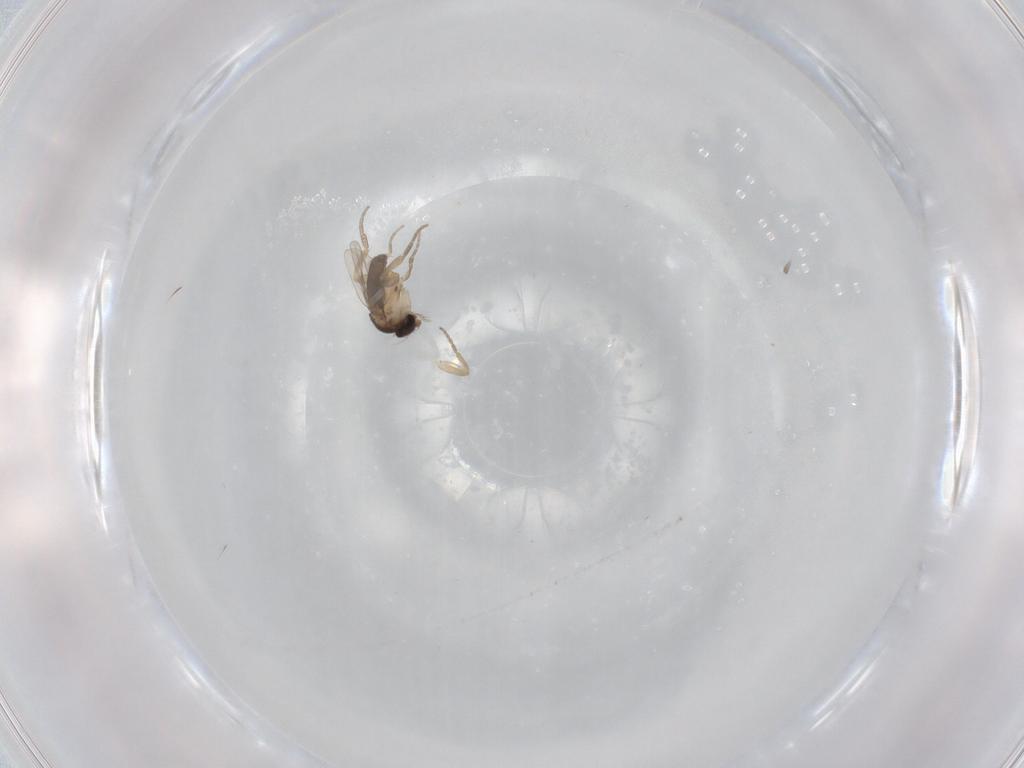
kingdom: Animalia
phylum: Arthropoda
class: Insecta
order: Diptera
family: Phoridae
